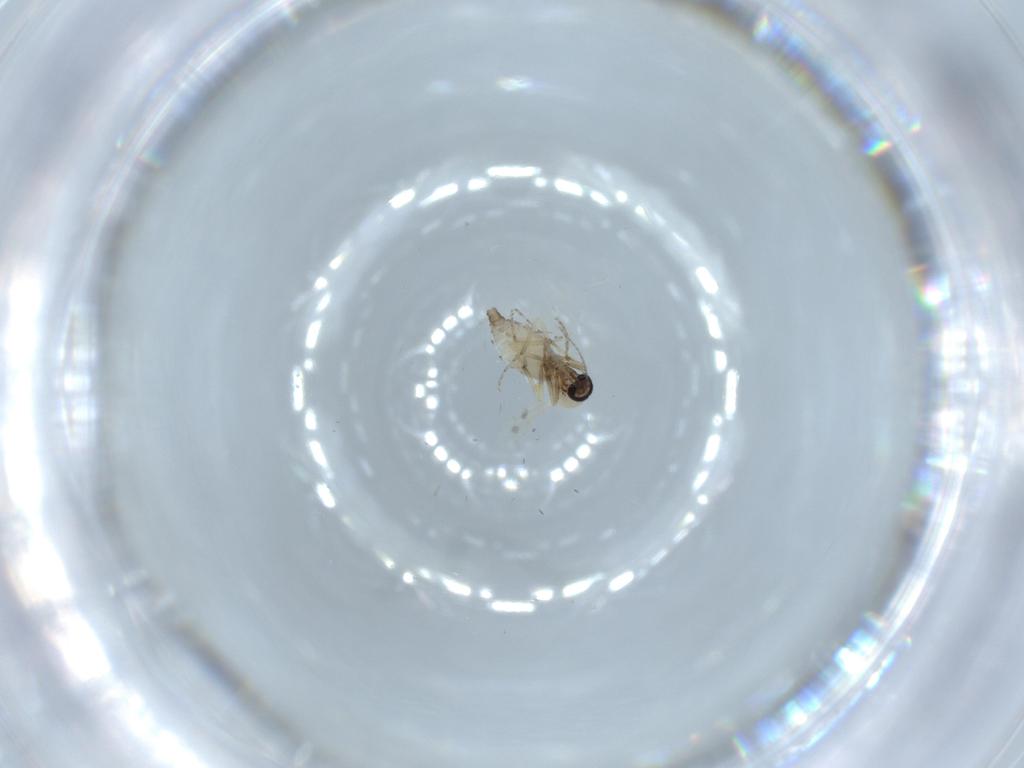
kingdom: Animalia
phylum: Arthropoda
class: Insecta
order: Diptera
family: Ceratopogonidae
